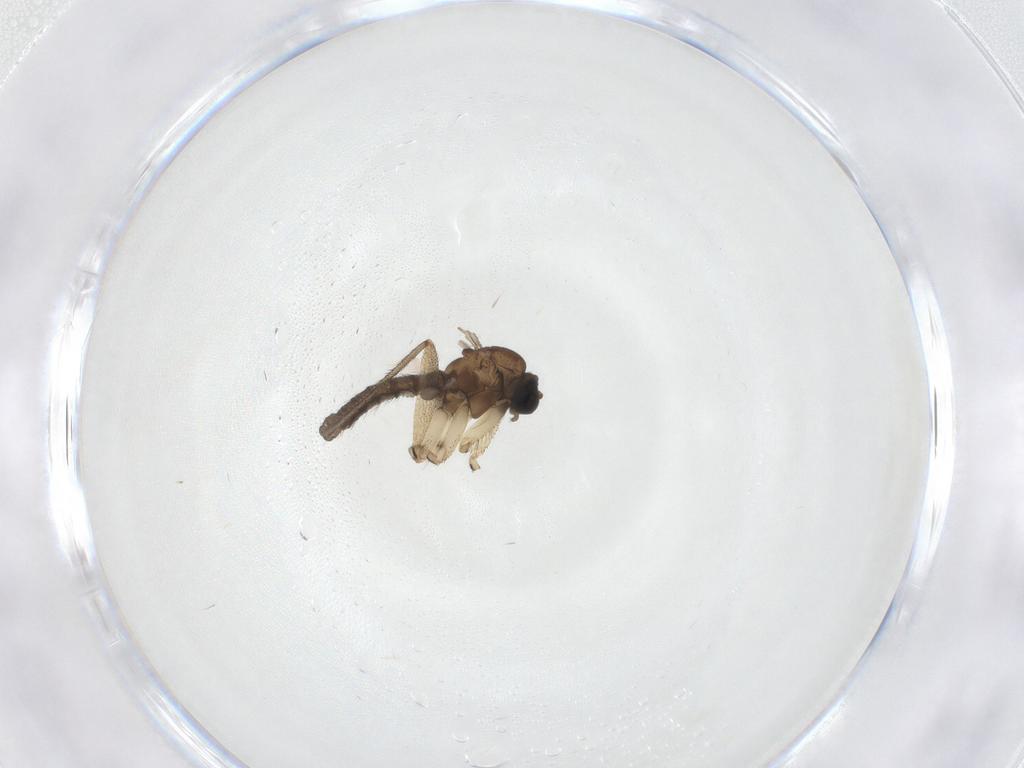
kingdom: Animalia
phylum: Arthropoda
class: Insecta
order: Diptera
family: Sciaridae
